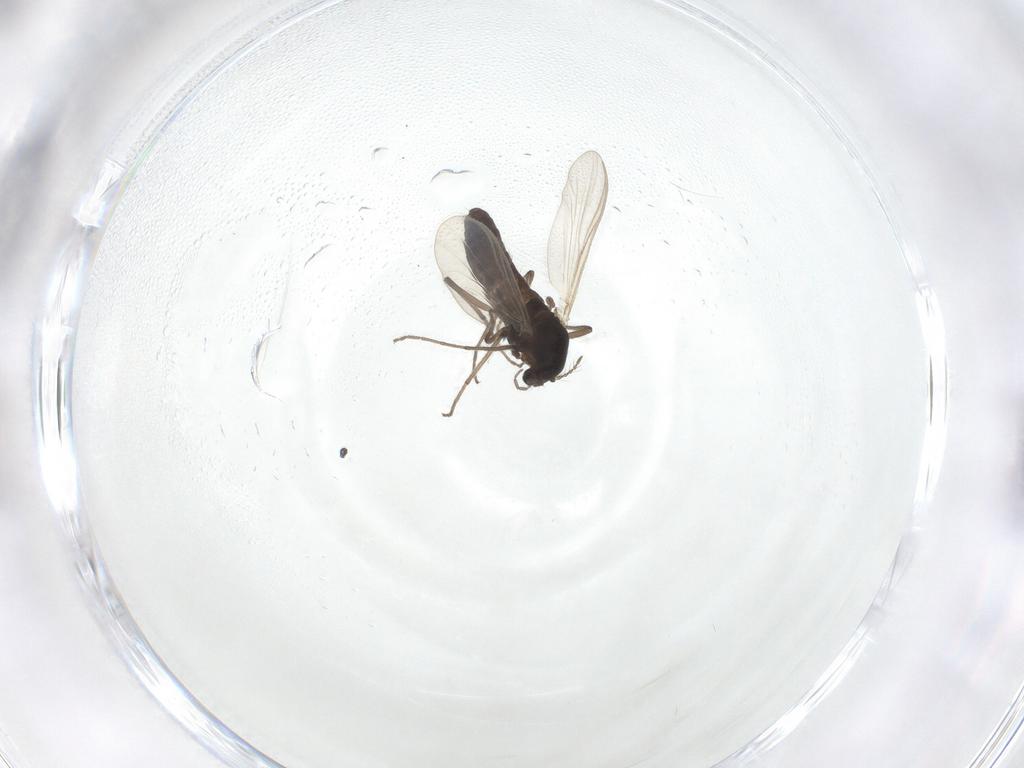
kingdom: Animalia
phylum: Arthropoda
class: Insecta
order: Diptera
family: Chironomidae
